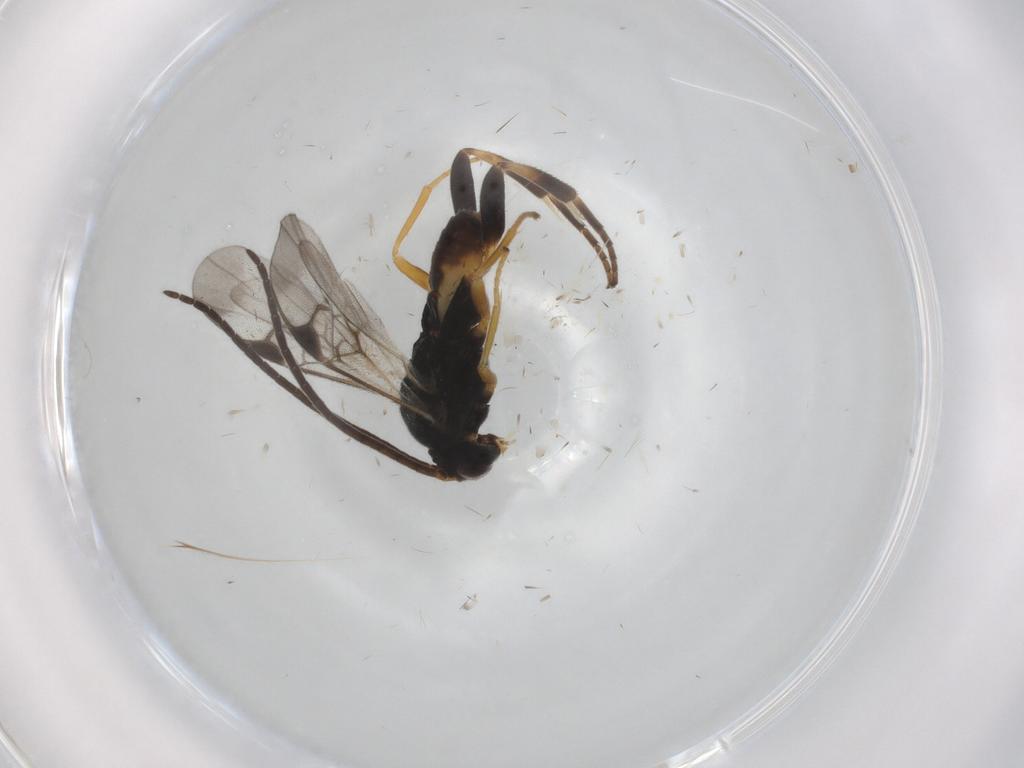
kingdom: Animalia
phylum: Arthropoda
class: Insecta
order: Hymenoptera
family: Braconidae
